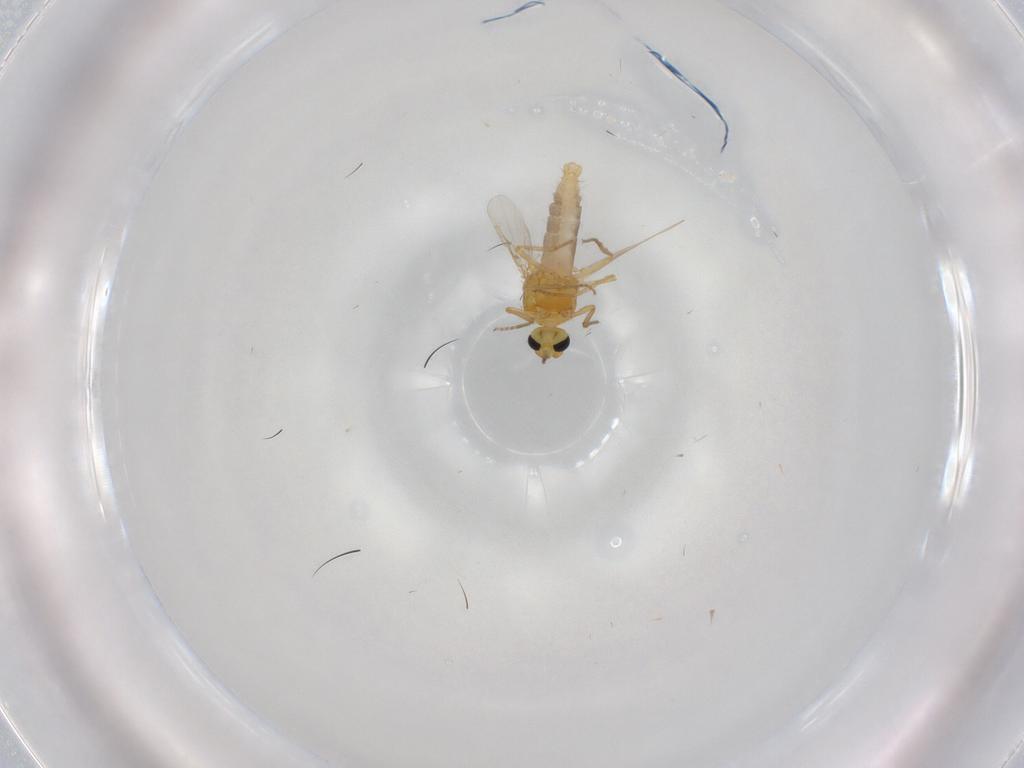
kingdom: Animalia
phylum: Arthropoda
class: Insecta
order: Diptera
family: Ceratopogonidae
